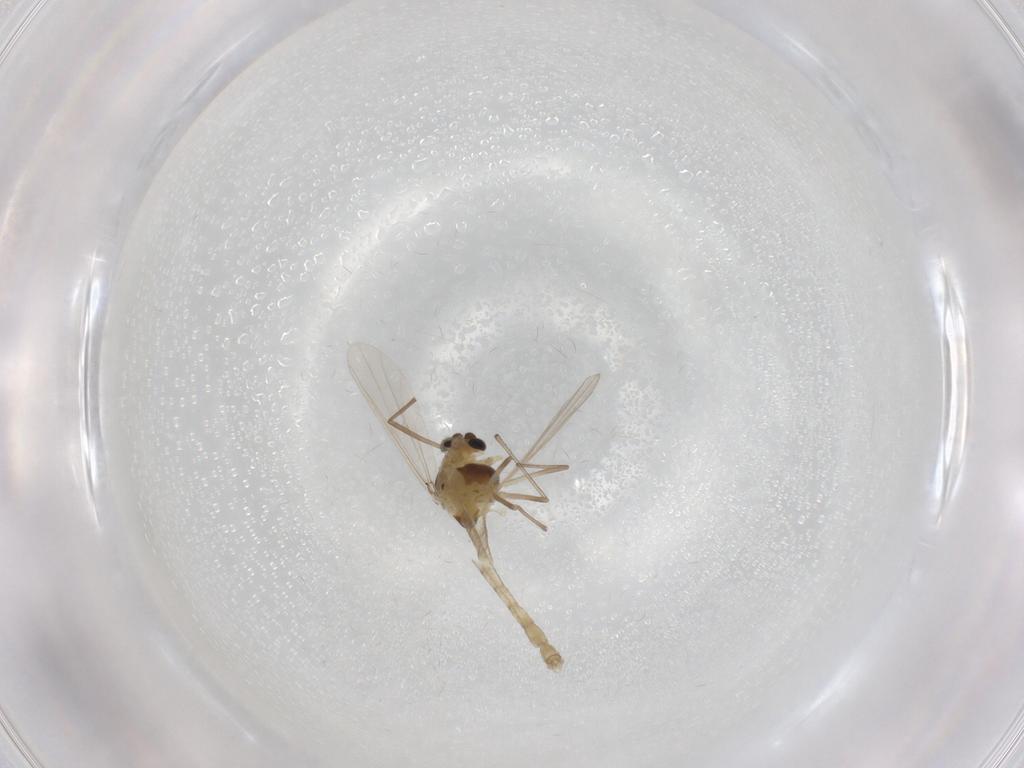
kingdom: Animalia
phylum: Arthropoda
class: Insecta
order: Diptera
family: Chironomidae
